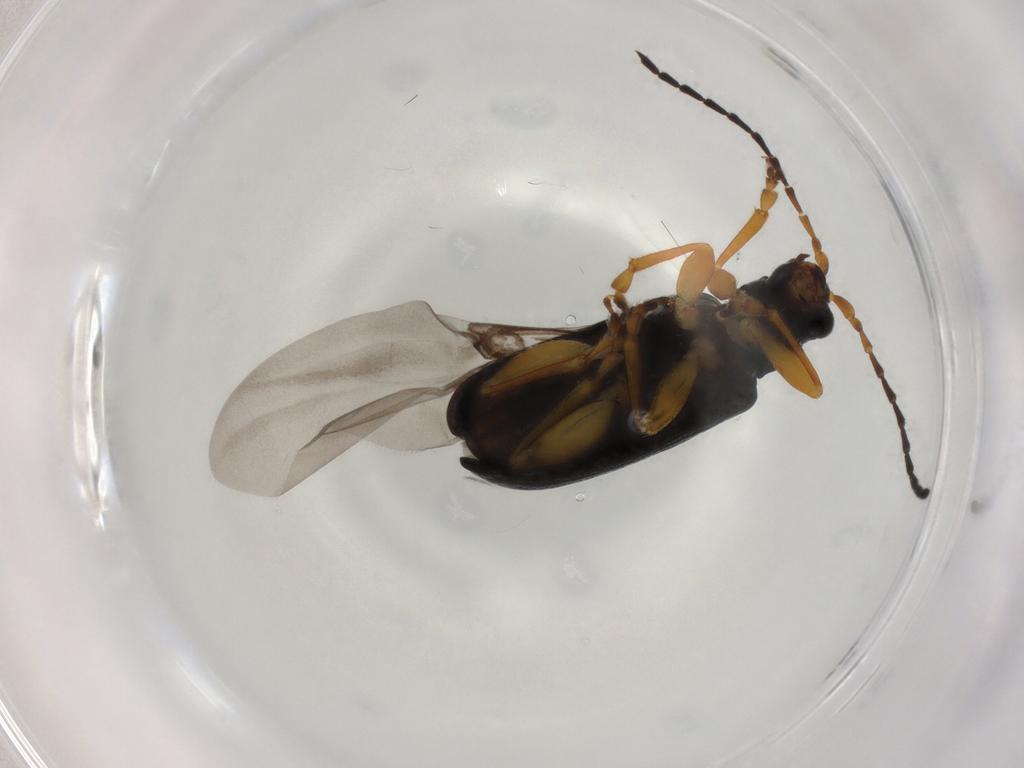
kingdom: Animalia
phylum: Arthropoda
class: Insecta
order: Coleoptera
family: Chrysomelidae
